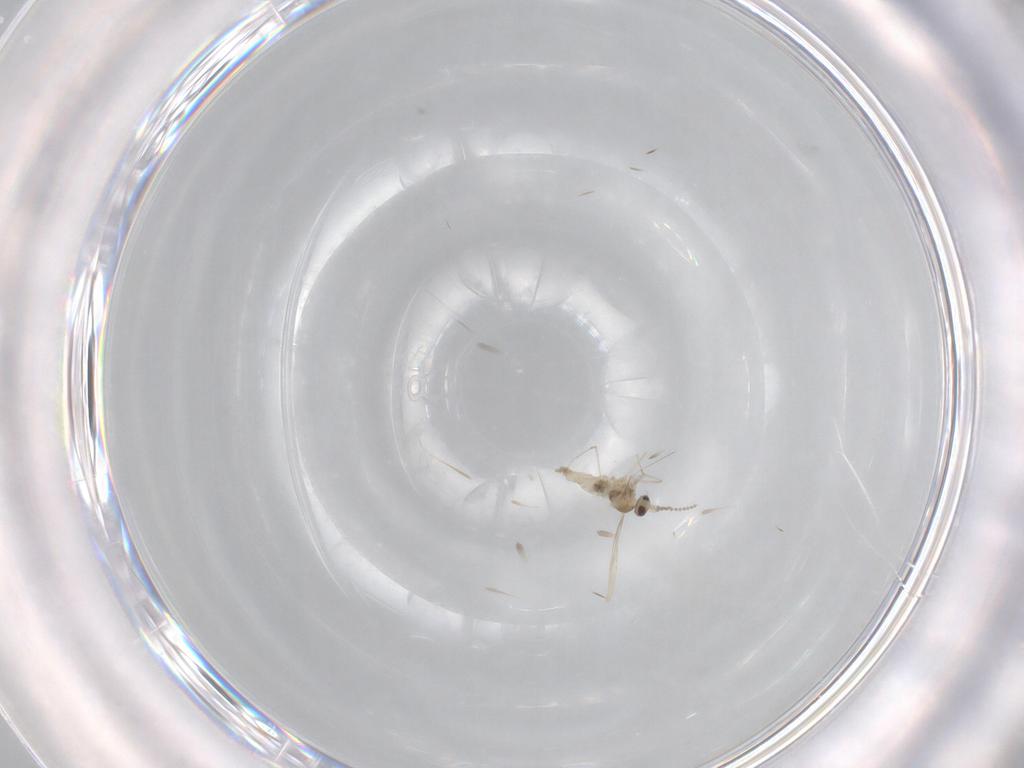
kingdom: Animalia
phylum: Arthropoda
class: Insecta
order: Diptera
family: Cecidomyiidae
